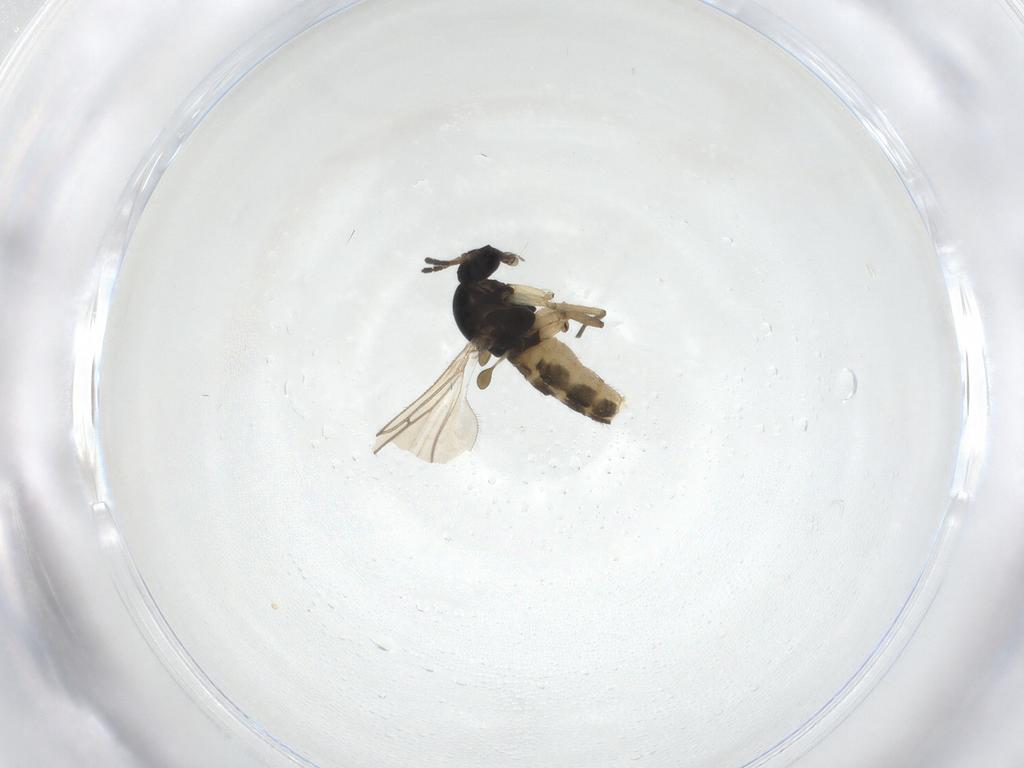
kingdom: Animalia
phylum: Arthropoda
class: Insecta
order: Diptera
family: Sciaridae
